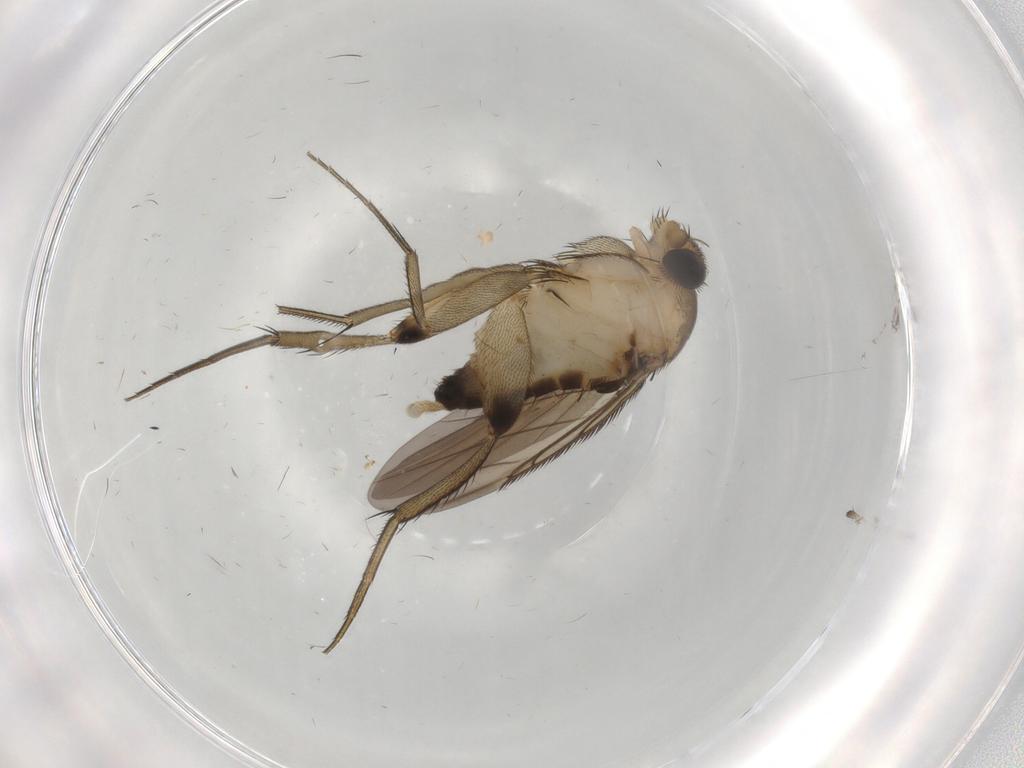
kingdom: Animalia
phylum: Arthropoda
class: Insecta
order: Diptera
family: Phoridae
